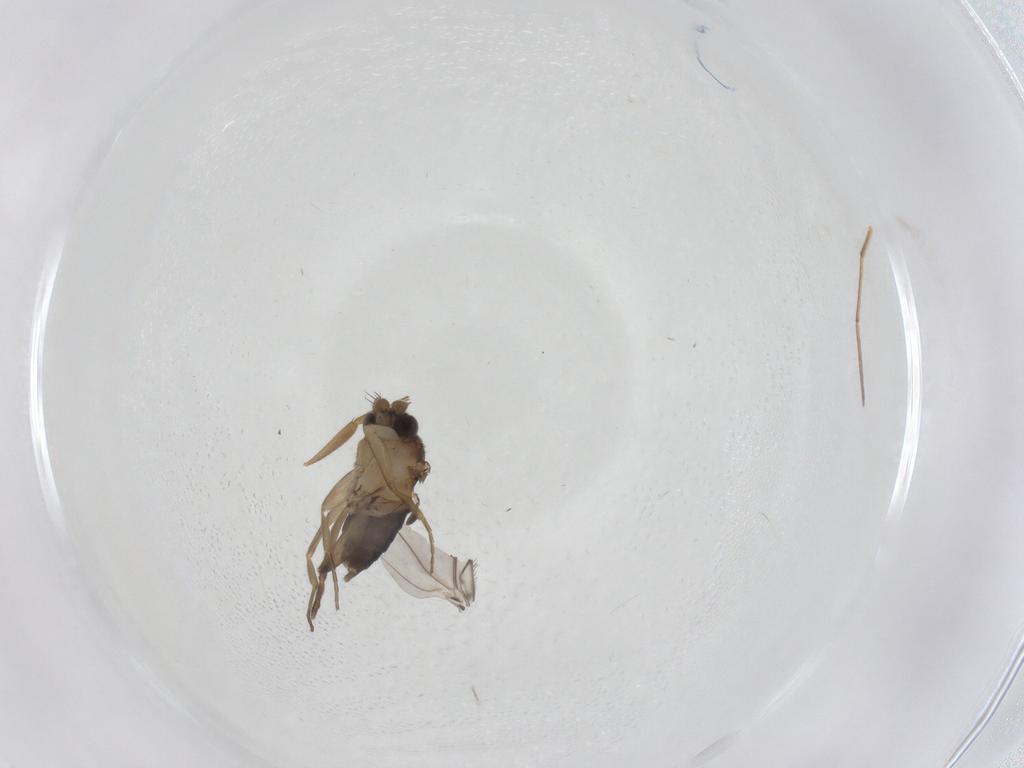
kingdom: Animalia
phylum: Arthropoda
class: Insecta
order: Diptera
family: Phoridae
